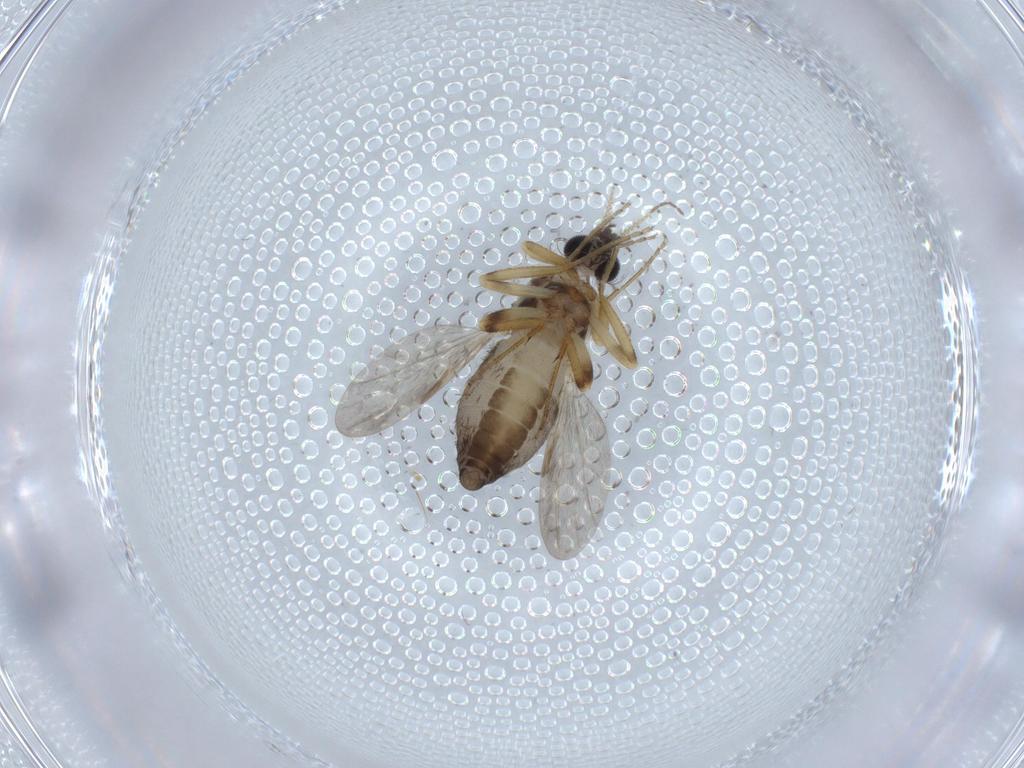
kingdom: Animalia
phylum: Arthropoda
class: Insecta
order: Diptera
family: Ceratopogonidae
